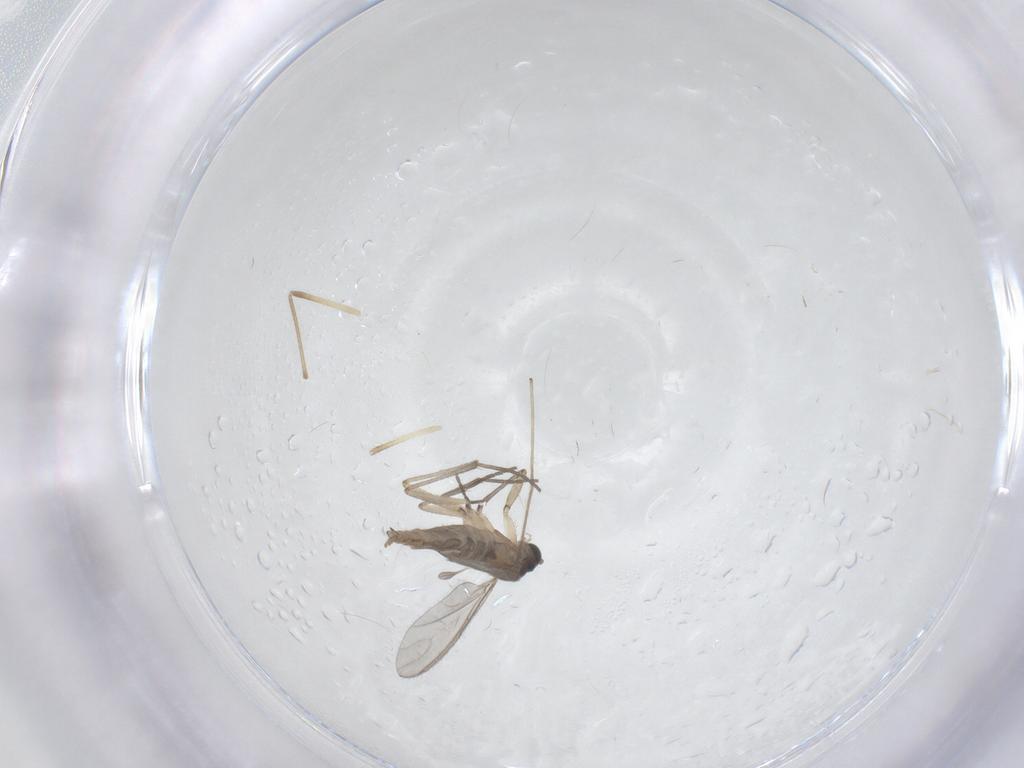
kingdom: Animalia
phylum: Arthropoda
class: Insecta
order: Diptera
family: Sciaridae
